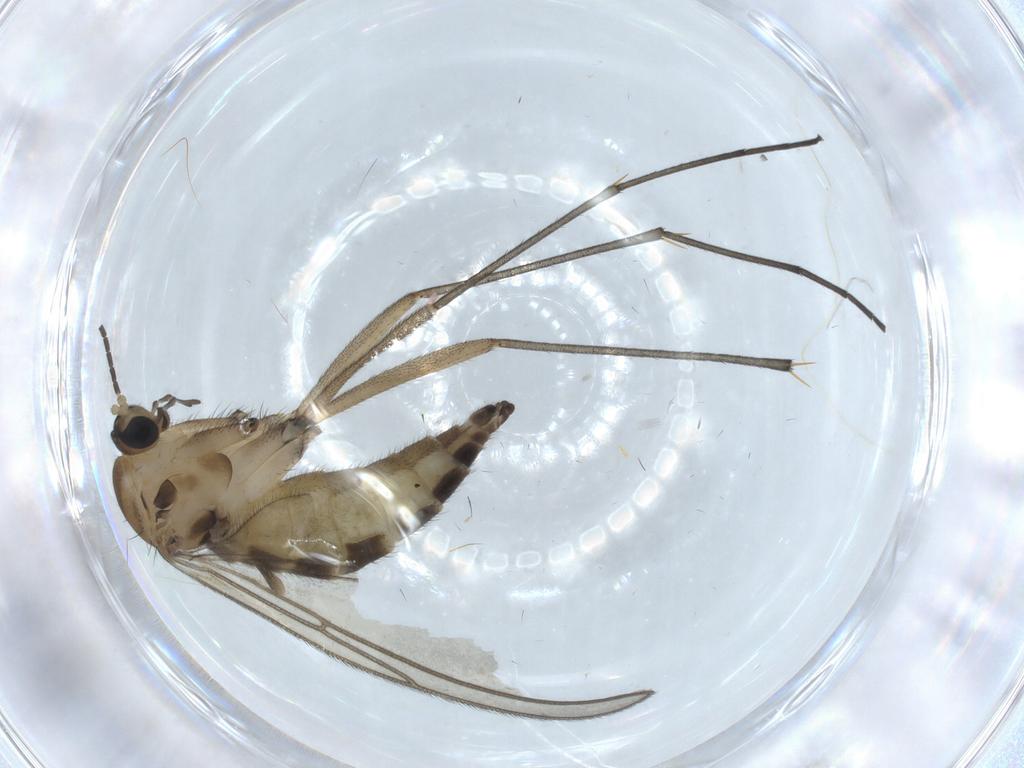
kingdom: Animalia
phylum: Arthropoda
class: Insecta
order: Diptera
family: Sciaridae
